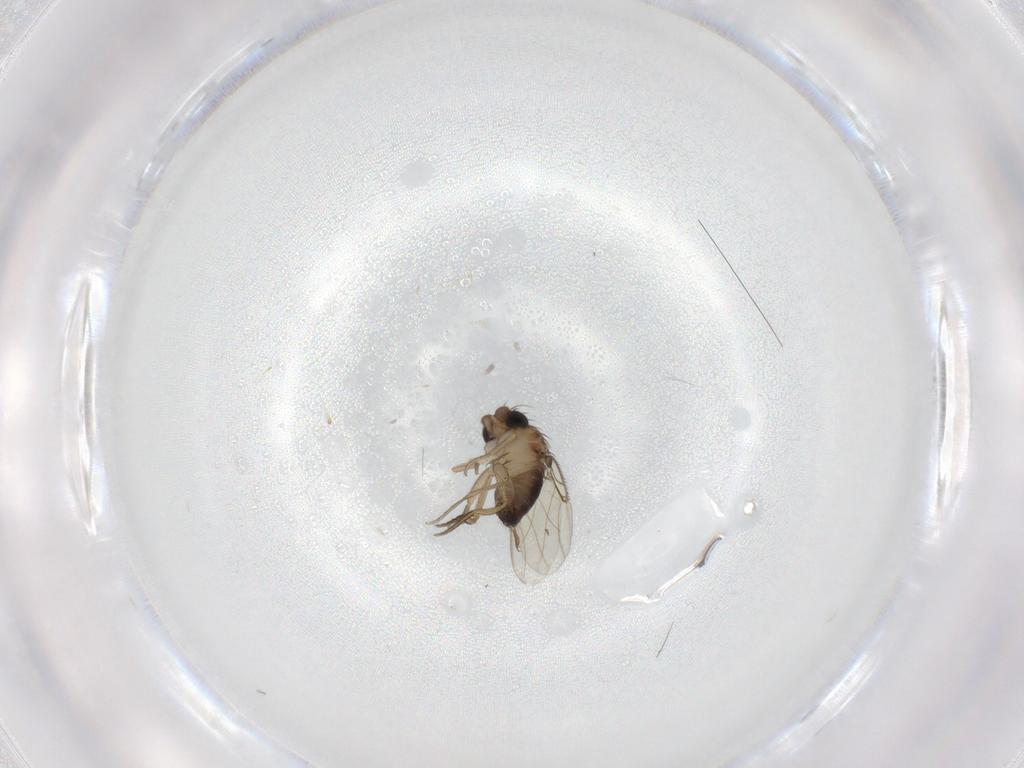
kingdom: Animalia
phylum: Arthropoda
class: Insecta
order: Diptera
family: Phoridae
